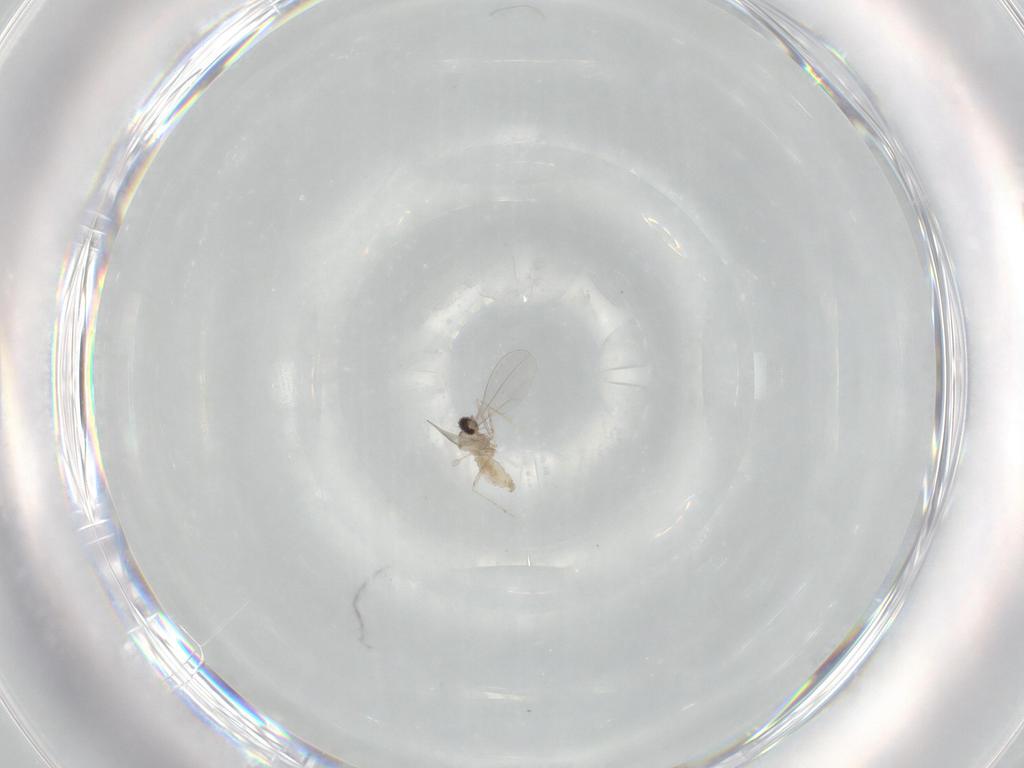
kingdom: Animalia
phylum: Arthropoda
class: Insecta
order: Diptera
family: Cecidomyiidae
